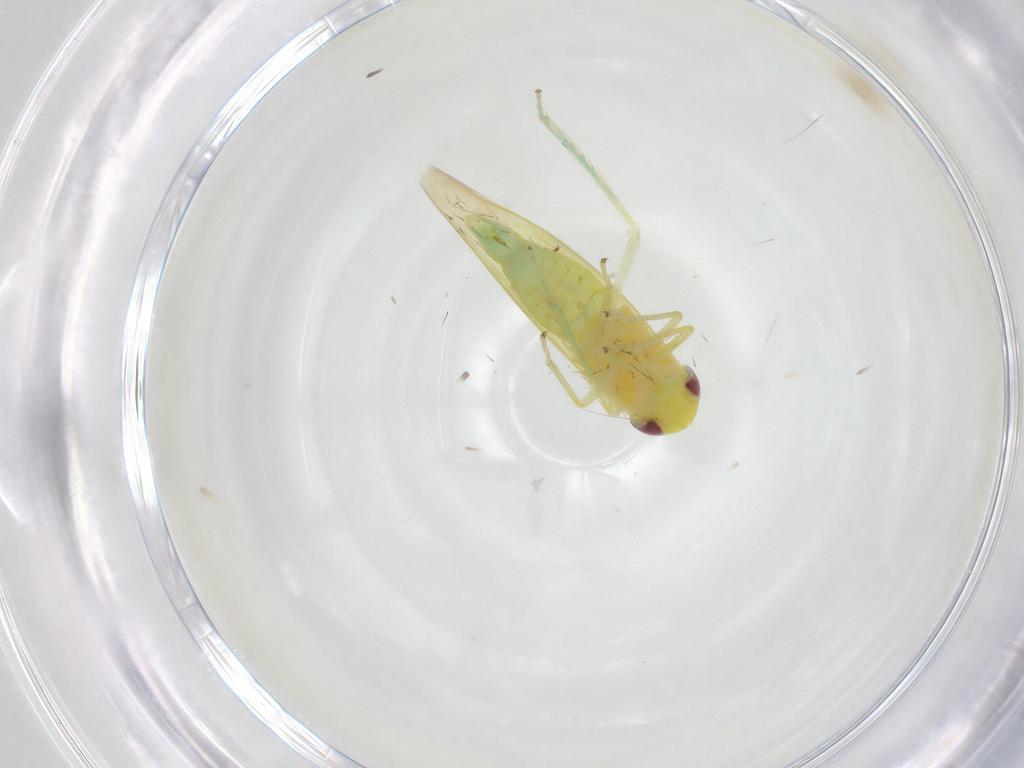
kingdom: Animalia
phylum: Arthropoda
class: Insecta
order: Hemiptera
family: Cicadellidae
